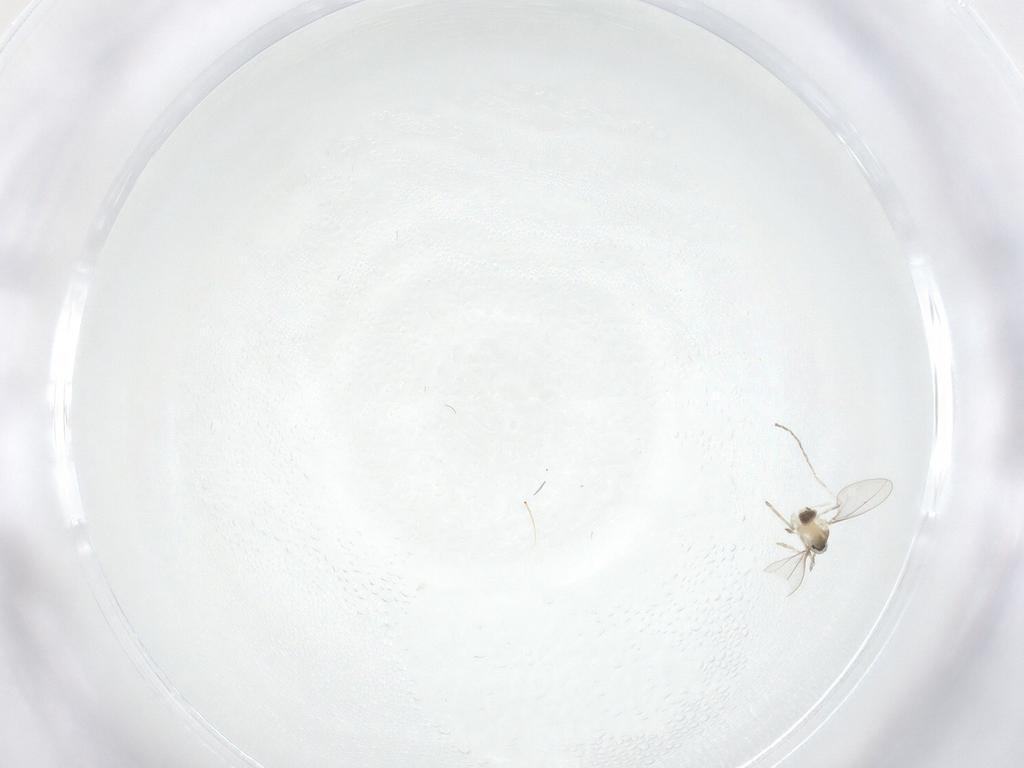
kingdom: Animalia
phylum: Arthropoda
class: Insecta
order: Diptera
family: Cecidomyiidae
